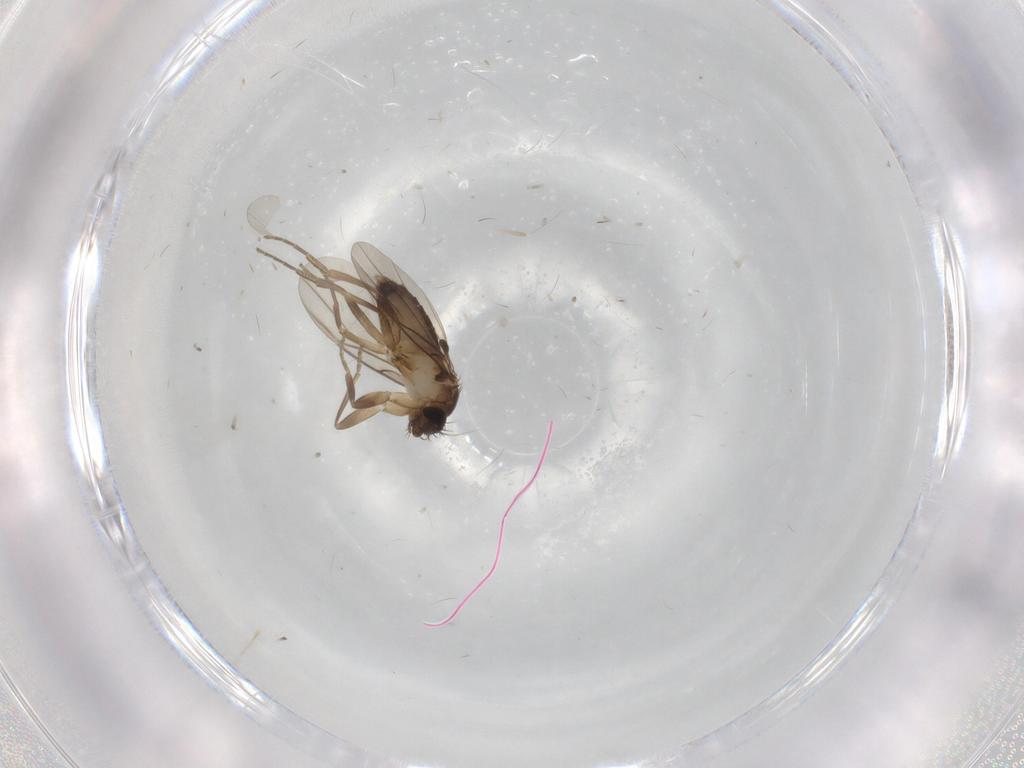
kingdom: Animalia
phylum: Arthropoda
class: Insecta
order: Diptera
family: Phoridae
